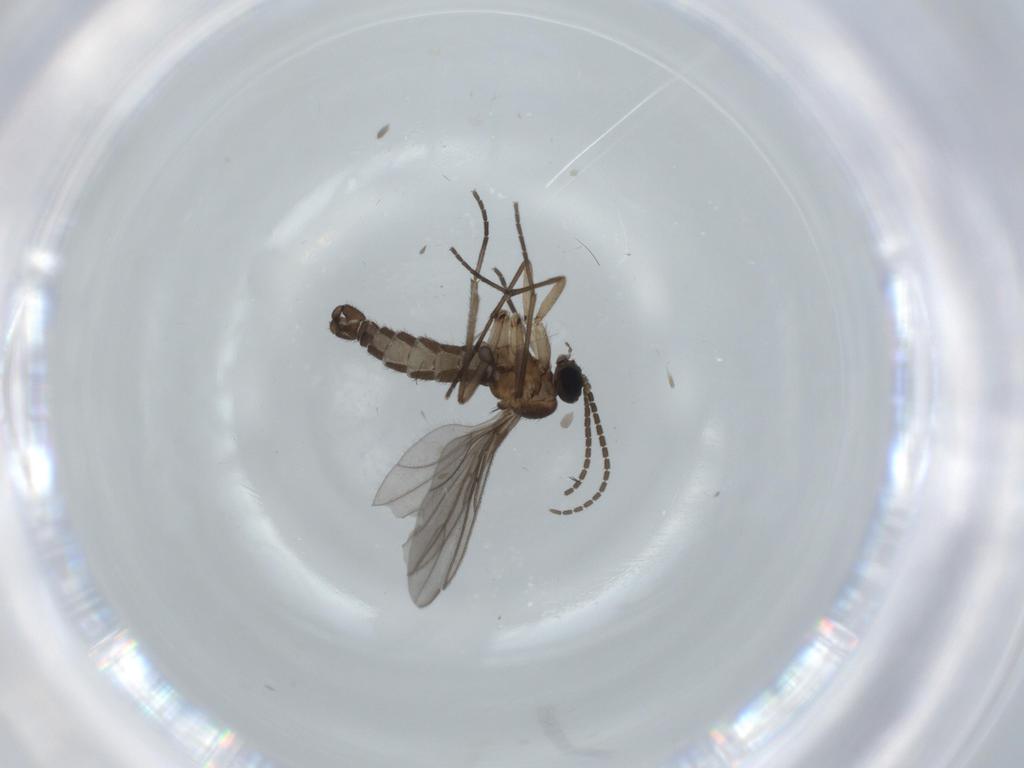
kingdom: Animalia
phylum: Arthropoda
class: Insecta
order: Diptera
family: Sciaridae
